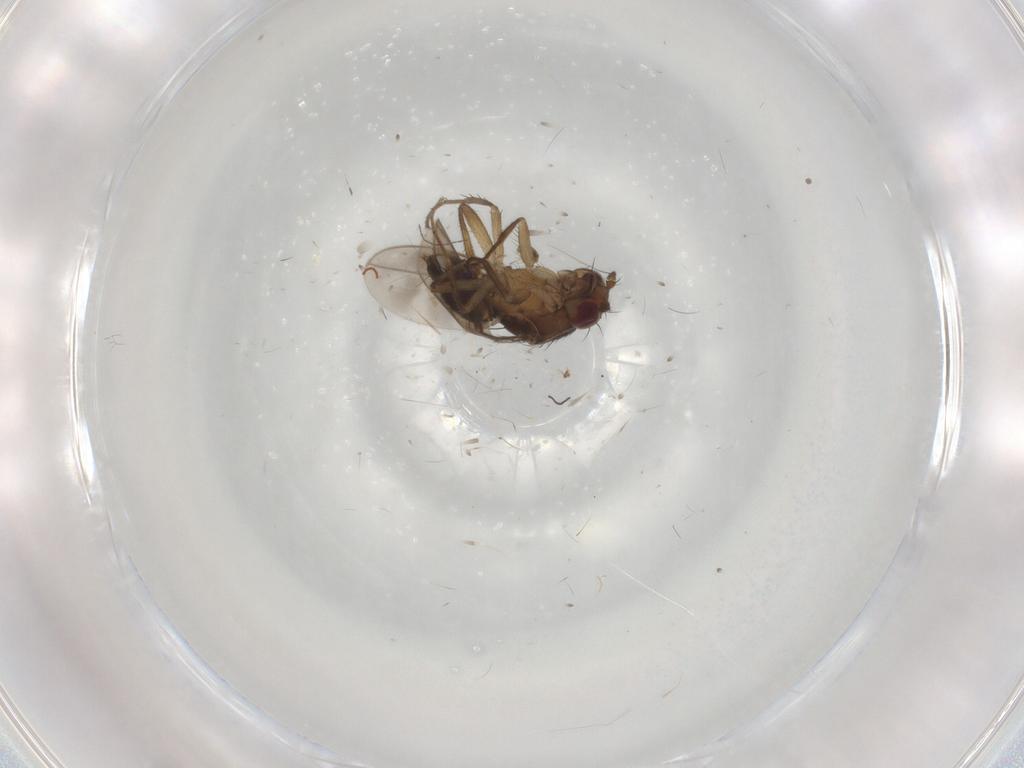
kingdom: Animalia
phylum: Arthropoda
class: Insecta
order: Diptera
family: Sphaeroceridae
